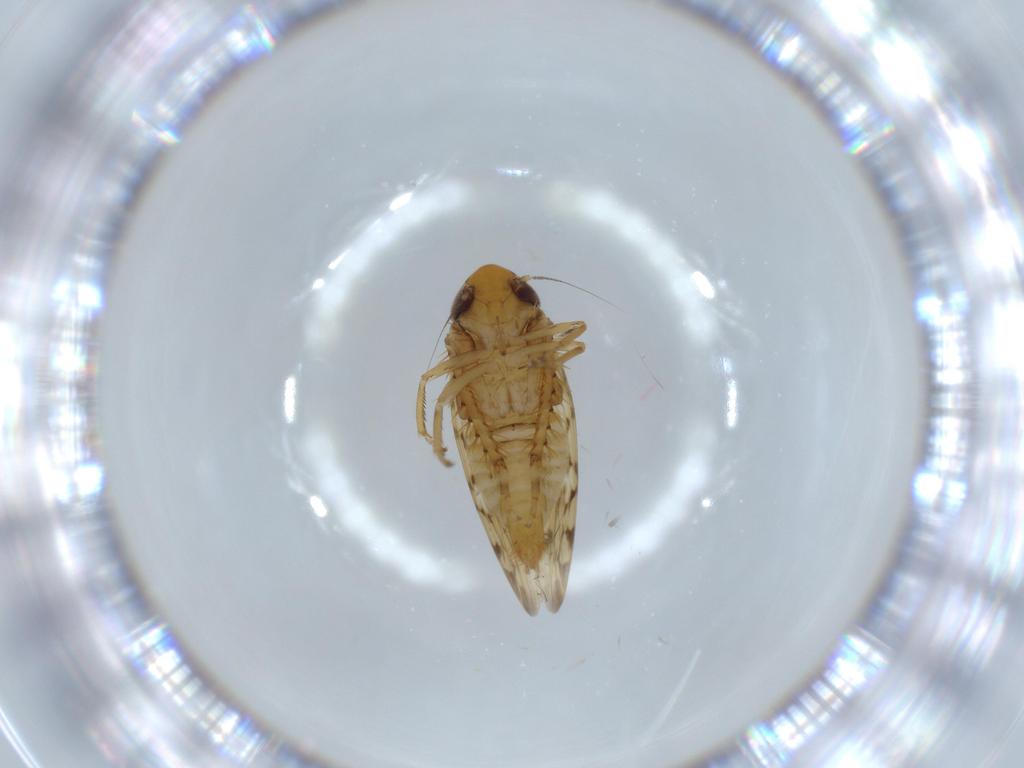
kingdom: Animalia
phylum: Arthropoda
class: Insecta
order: Hemiptera
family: Cicadellidae
